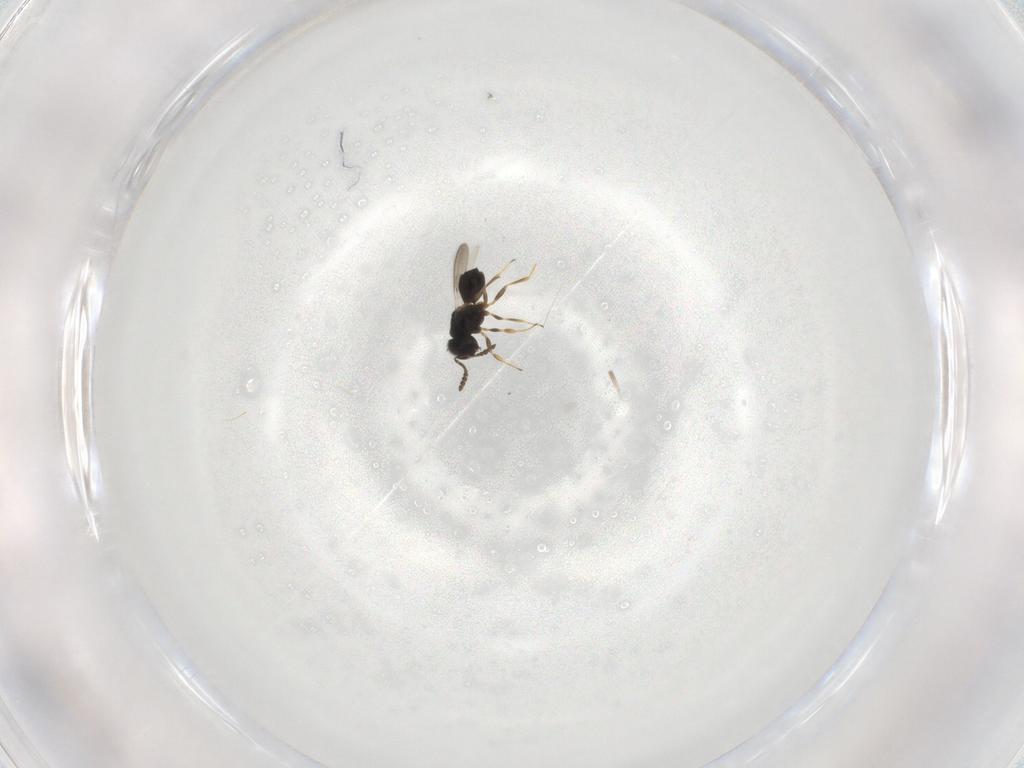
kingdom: Animalia
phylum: Arthropoda
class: Insecta
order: Hymenoptera
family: Scelionidae
